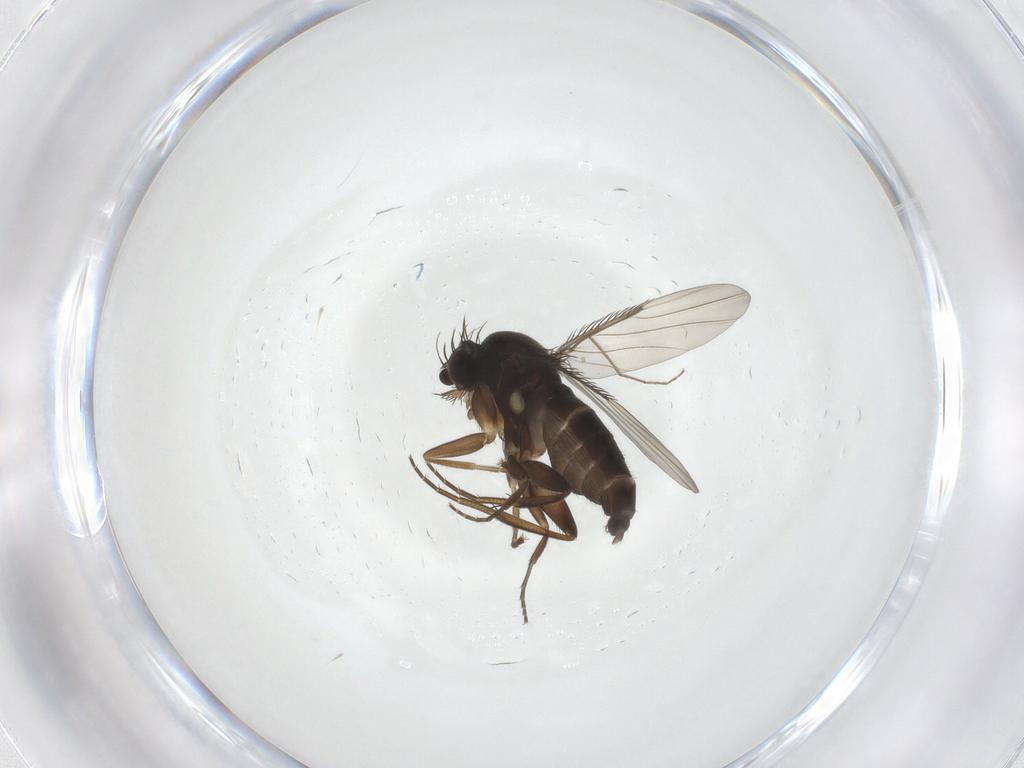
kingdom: Animalia
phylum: Arthropoda
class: Insecta
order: Diptera
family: Phoridae
